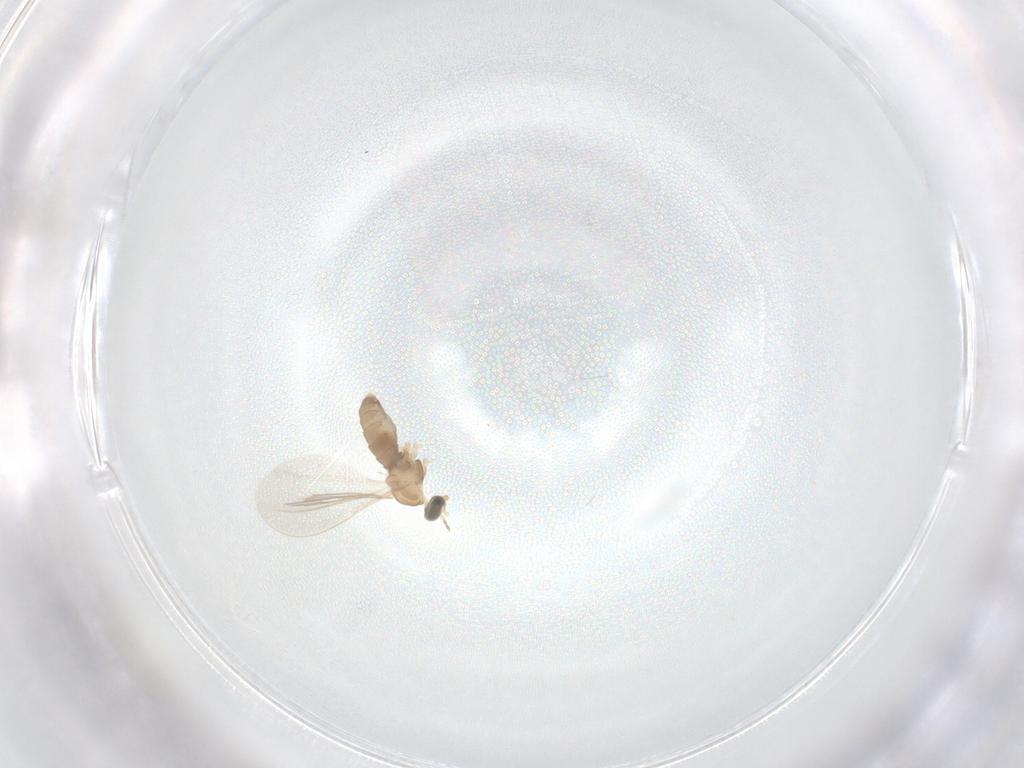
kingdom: Animalia
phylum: Arthropoda
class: Insecta
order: Diptera
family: Cecidomyiidae
